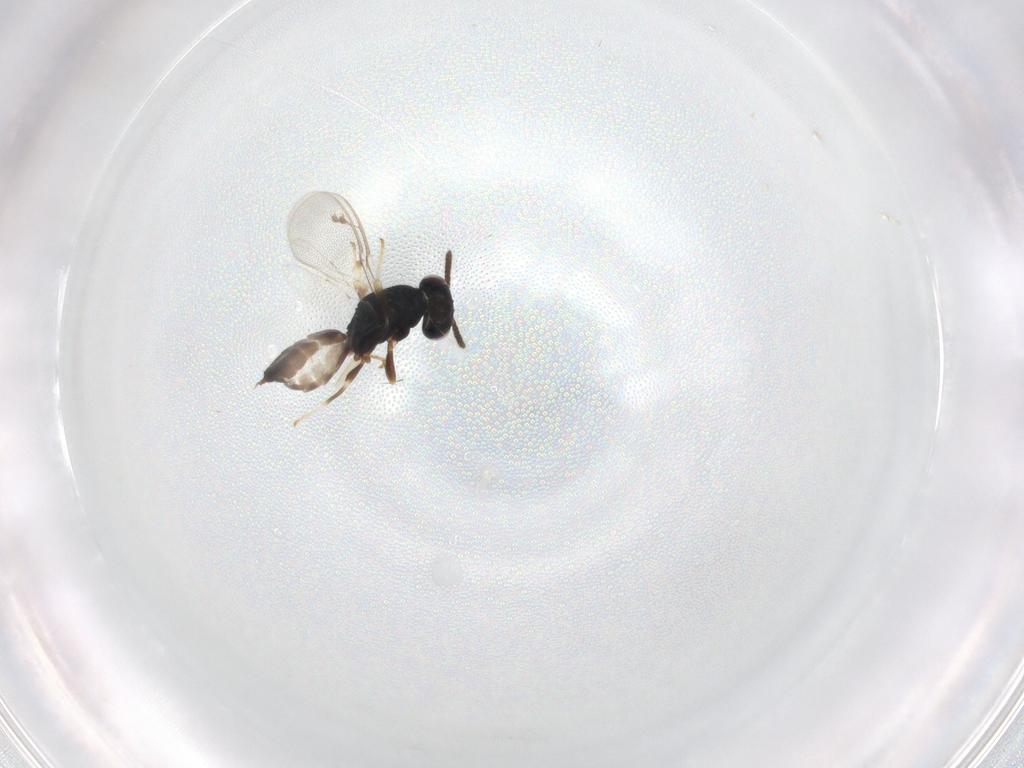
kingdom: Animalia
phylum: Arthropoda
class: Insecta
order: Hymenoptera
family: Pteromalidae
